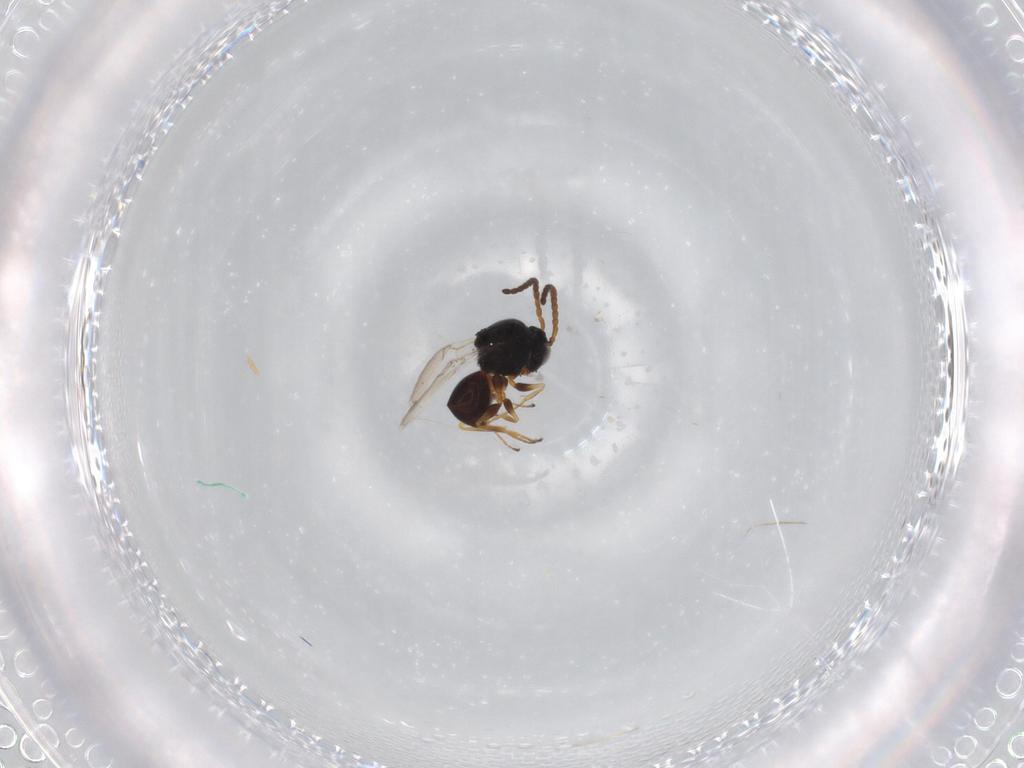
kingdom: Animalia
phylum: Arthropoda
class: Insecta
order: Hymenoptera
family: Figitidae
